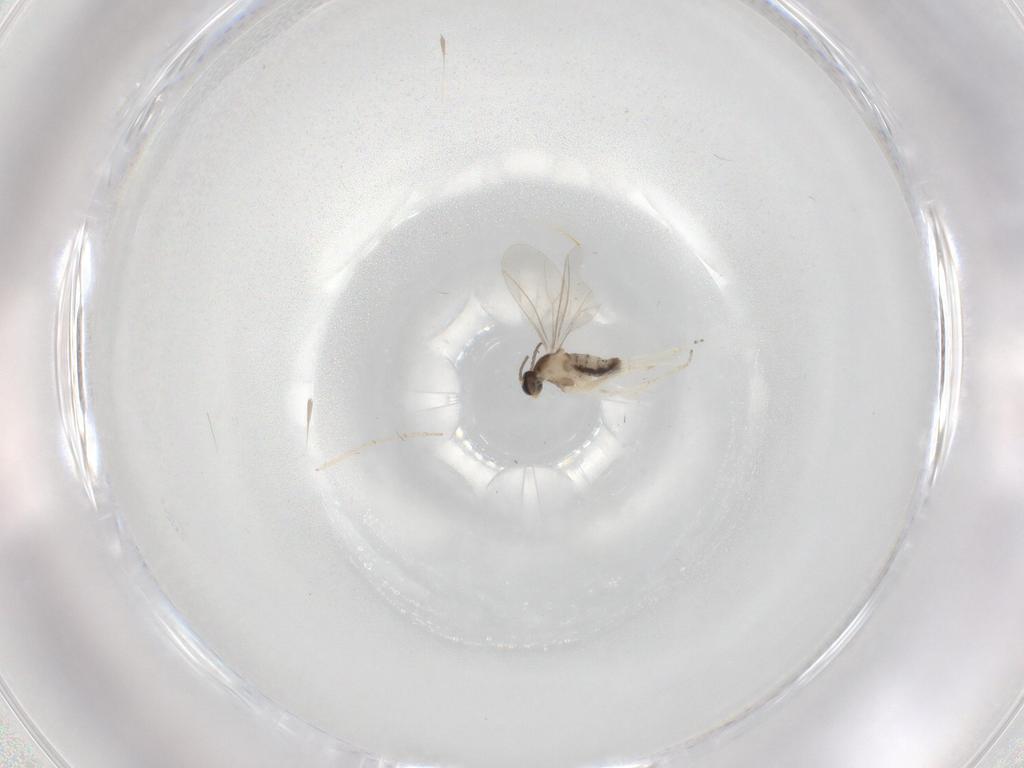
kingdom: Animalia
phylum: Arthropoda
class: Insecta
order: Diptera
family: Cecidomyiidae
